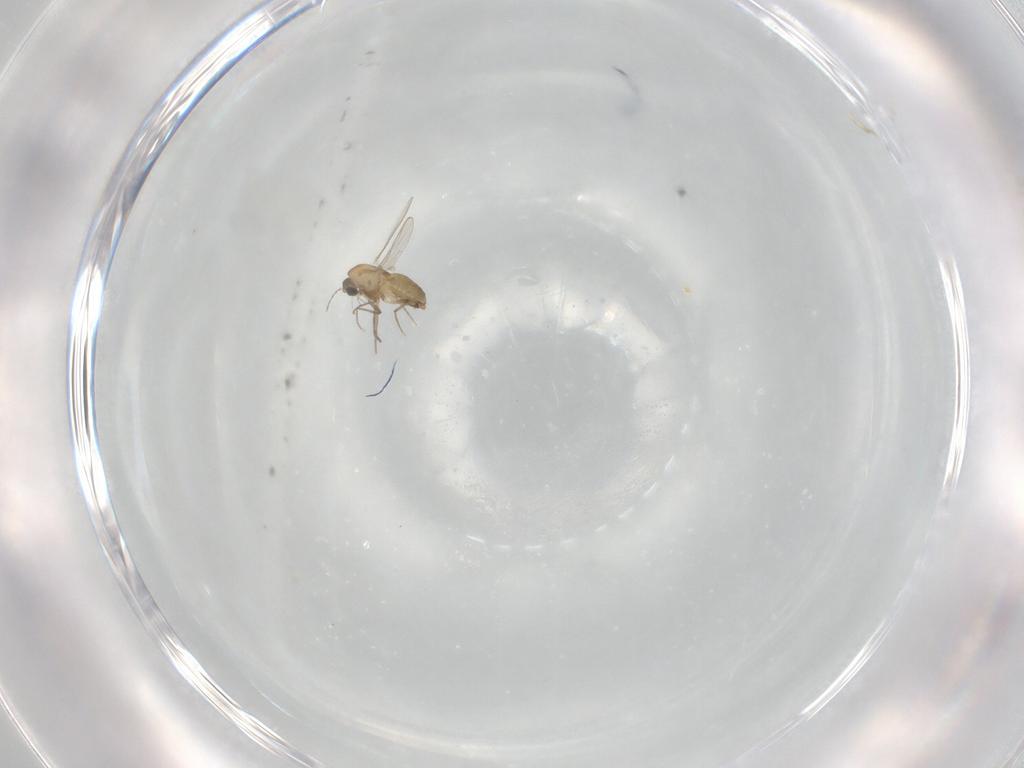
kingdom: Animalia
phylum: Arthropoda
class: Insecta
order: Diptera
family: Chironomidae
